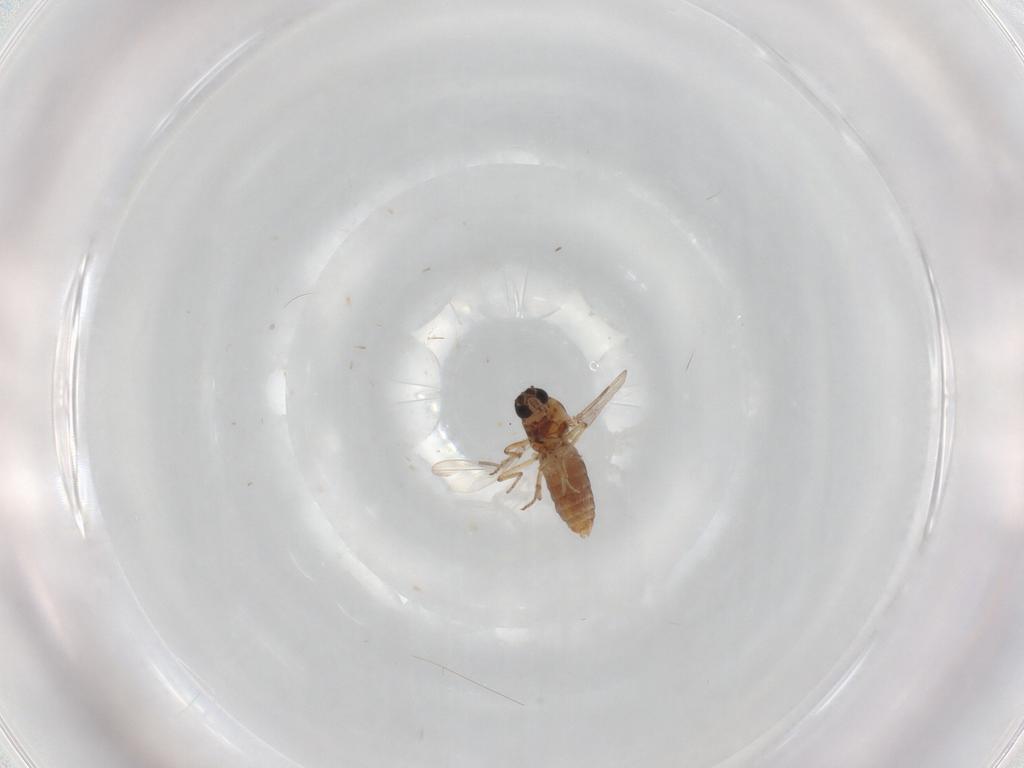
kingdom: Animalia
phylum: Arthropoda
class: Insecta
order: Diptera
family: Ceratopogonidae
